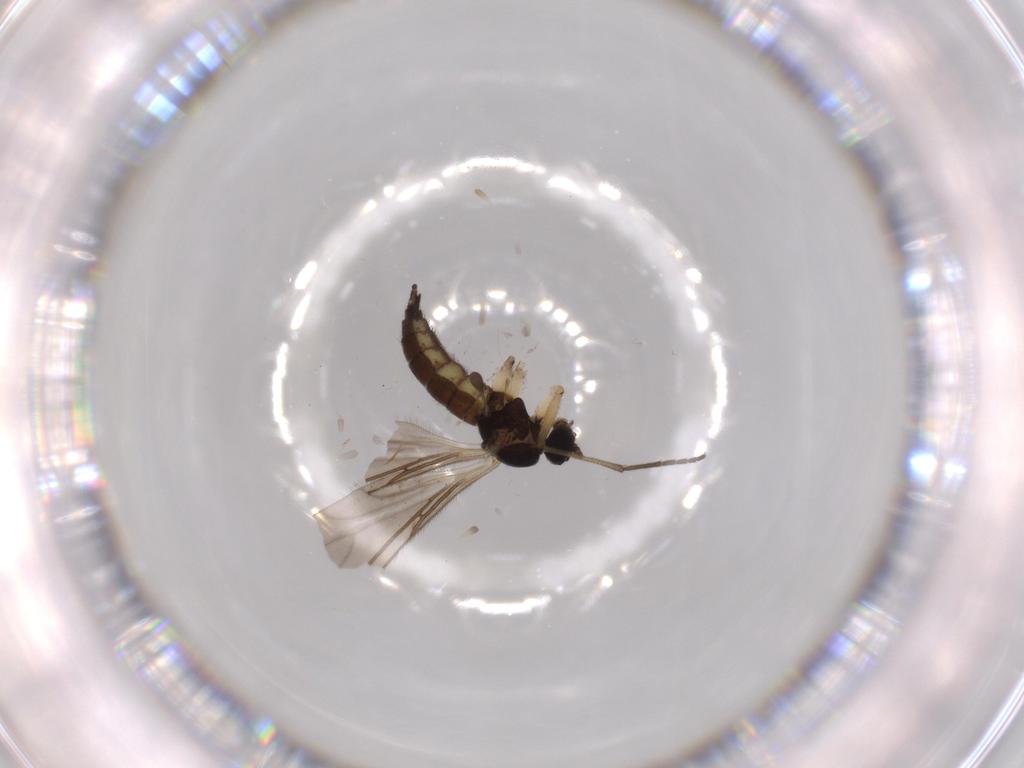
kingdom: Animalia
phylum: Arthropoda
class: Insecta
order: Diptera
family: Sciaridae
